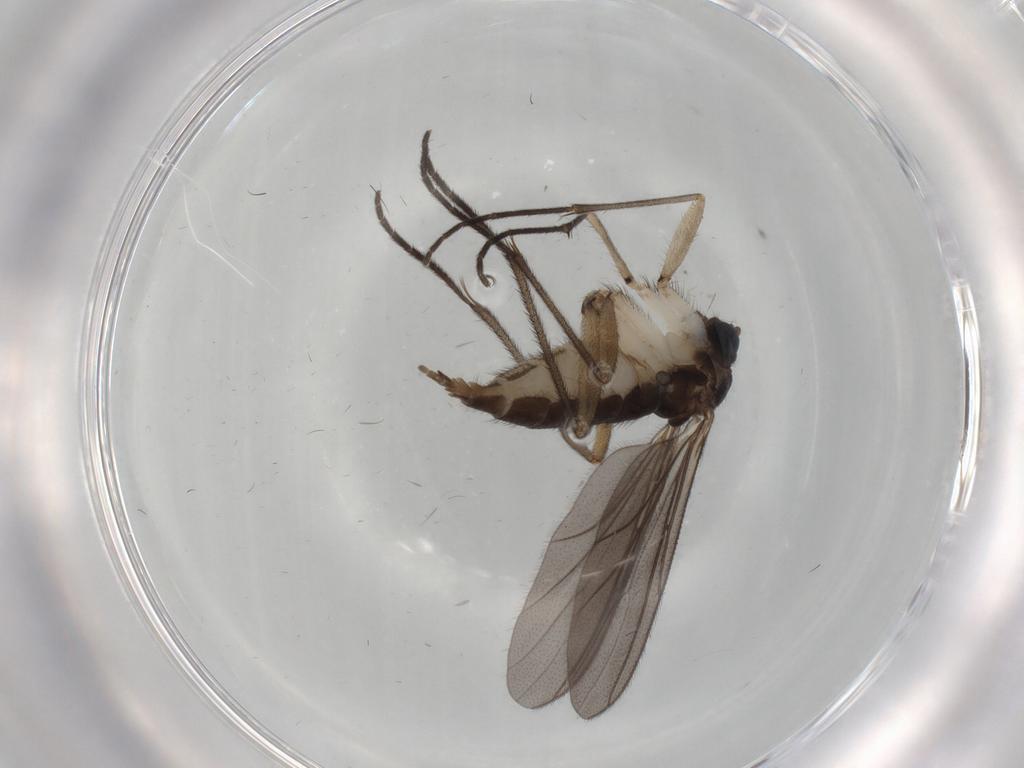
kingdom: Animalia
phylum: Arthropoda
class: Insecta
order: Diptera
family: Sciaridae
